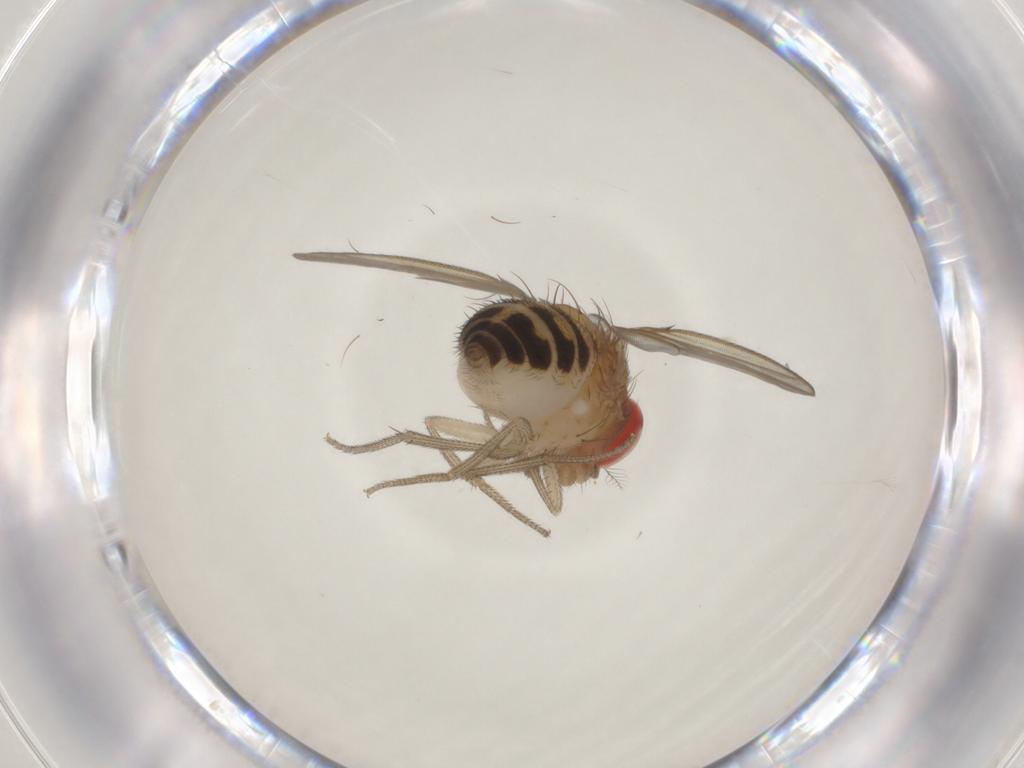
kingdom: Animalia
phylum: Arthropoda
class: Insecta
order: Diptera
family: Drosophilidae
